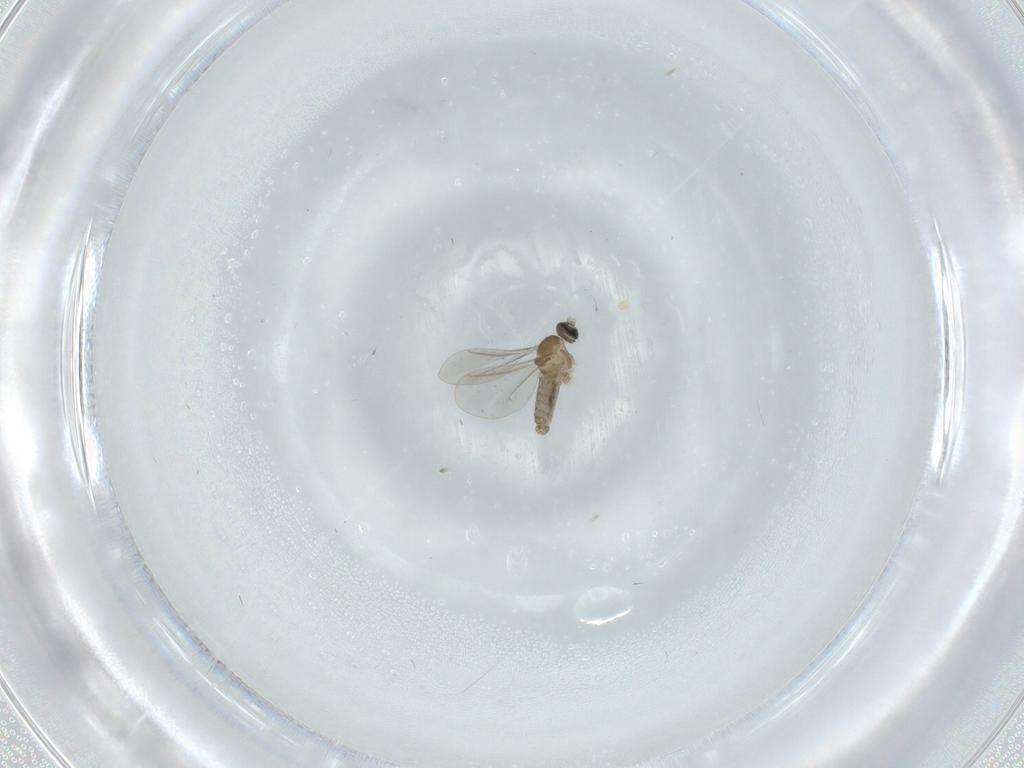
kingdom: Animalia
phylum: Arthropoda
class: Insecta
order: Diptera
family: Cecidomyiidae
